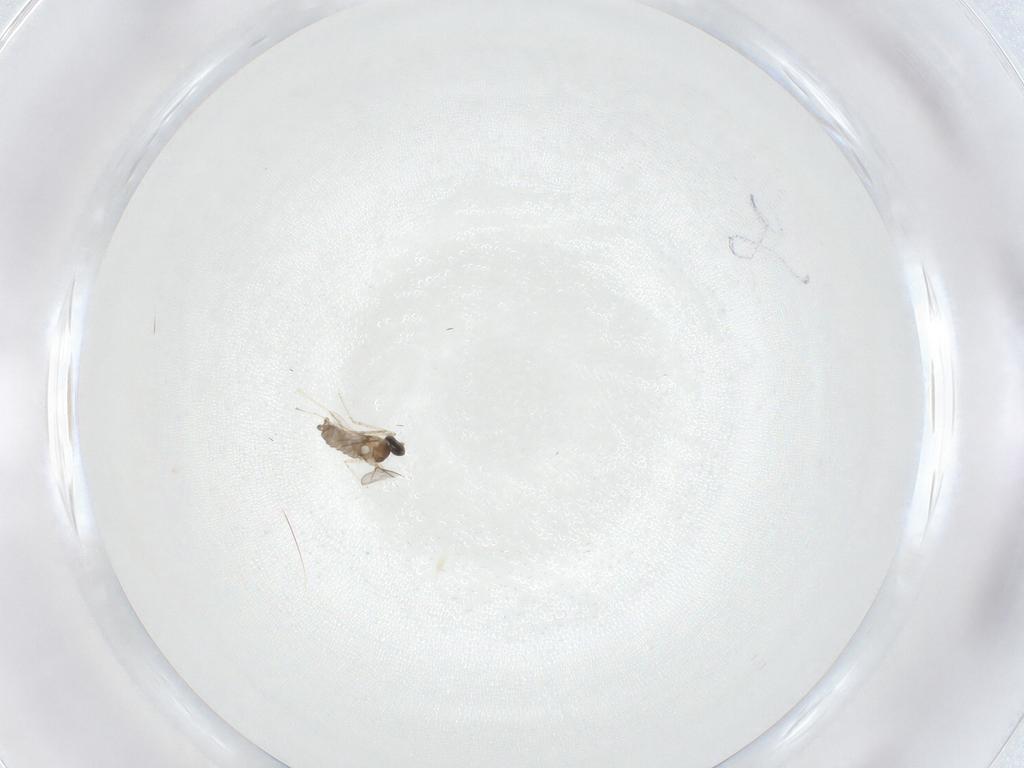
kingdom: Animalia
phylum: Arthropoda
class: Insecta
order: Diptera
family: Cecidomyiidae
